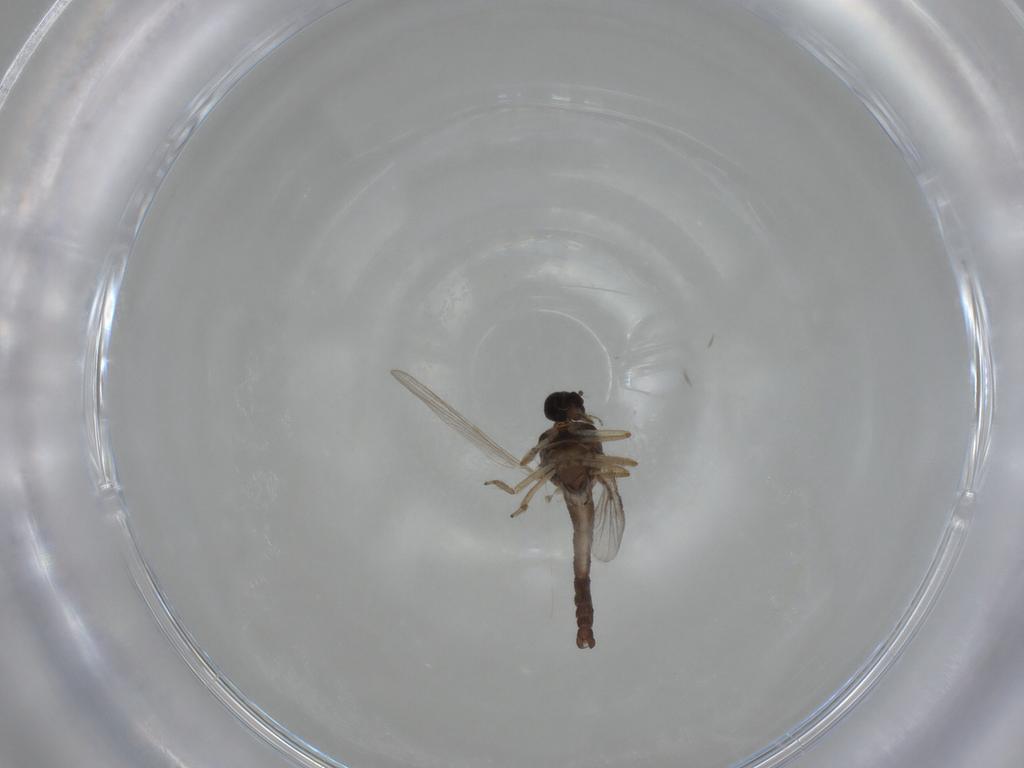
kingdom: Animalia
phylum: Arthropoda
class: Insecta
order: Diptera
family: Ceratopogonidae
